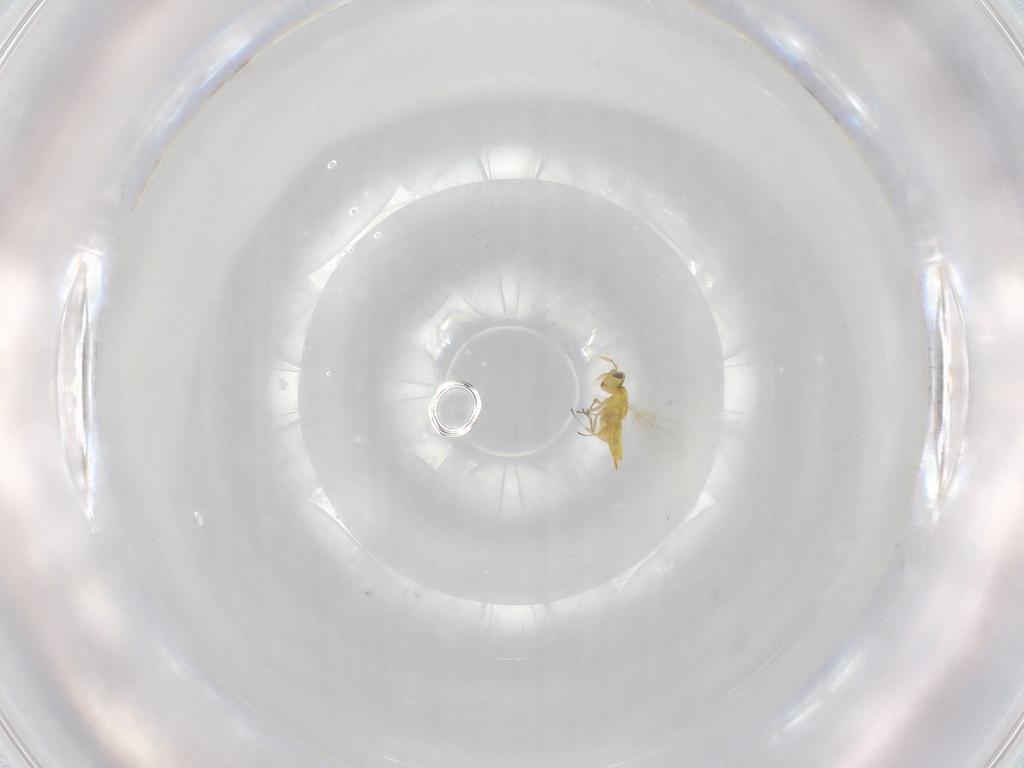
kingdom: Animalia
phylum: Arthropoda
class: Insecta
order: Hymenoptera
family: Aphelinidae
